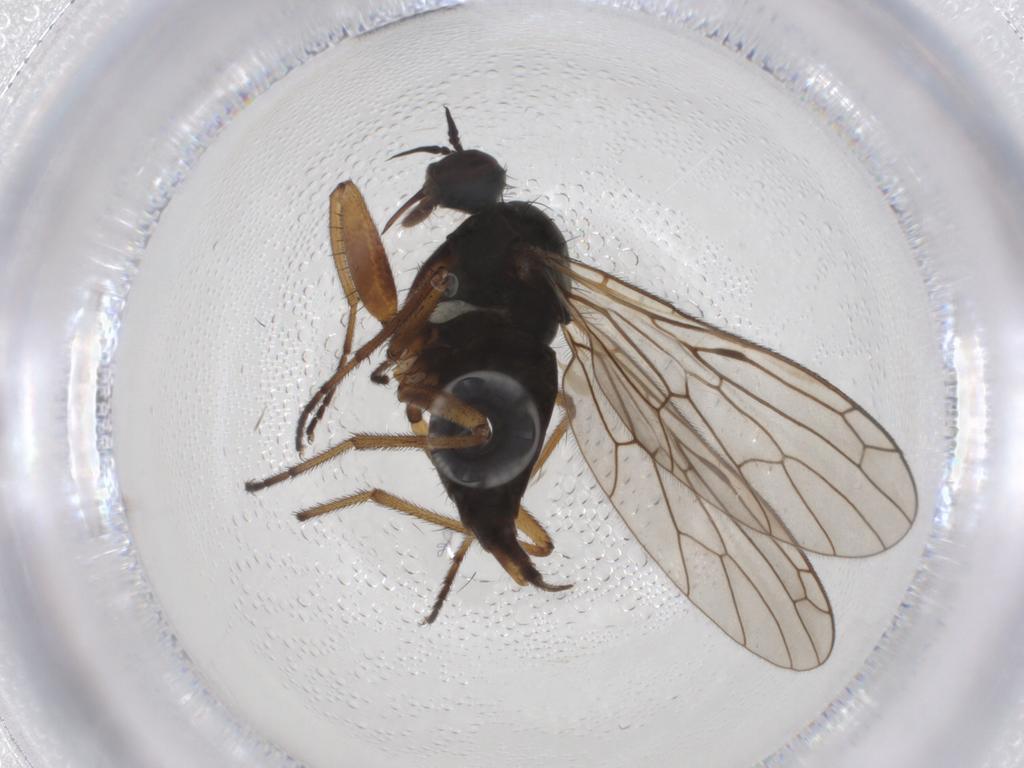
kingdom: Animalia
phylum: Arthropoda
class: Insecta
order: Diptera
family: Empididae
